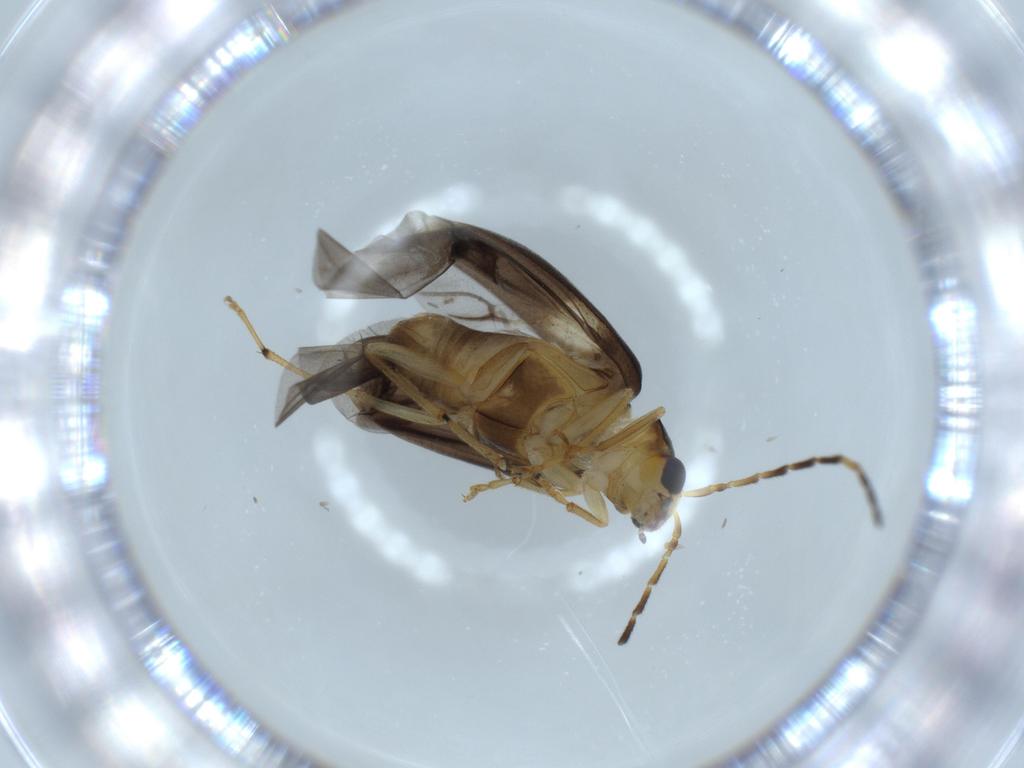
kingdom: Animalia
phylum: Arthropoda
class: Insecta
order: Coleoptera
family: Chrysomelidae
